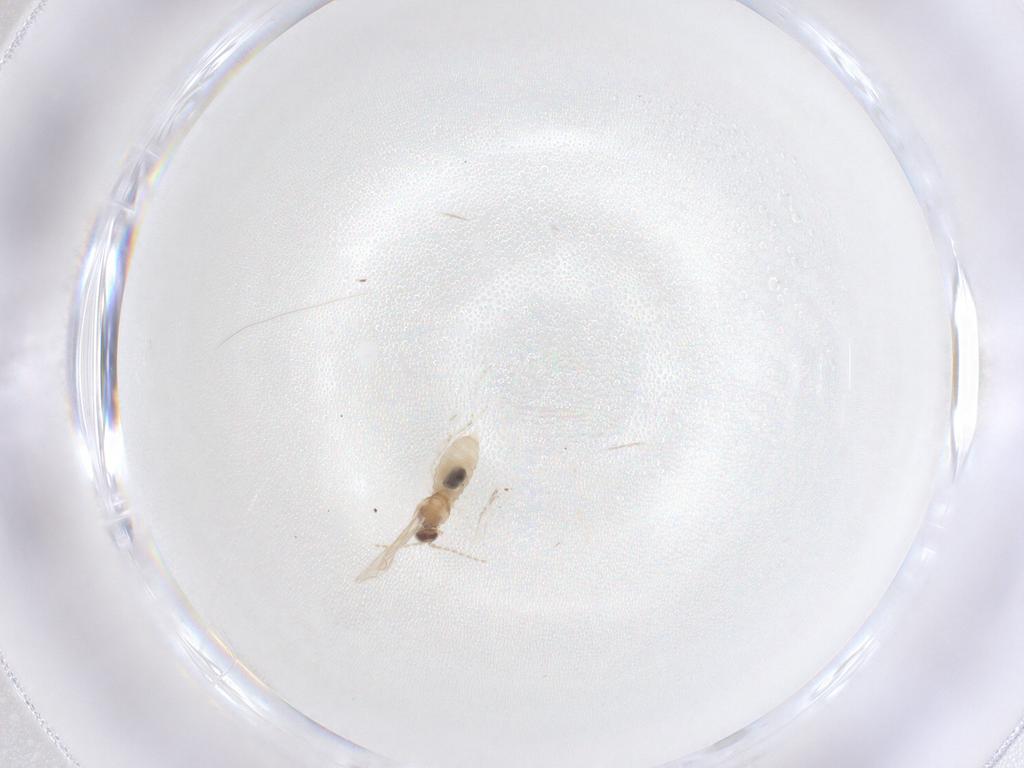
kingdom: Animalia
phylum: Arthropoda
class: Insecta
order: Diptera
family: Cecidomyiidae
